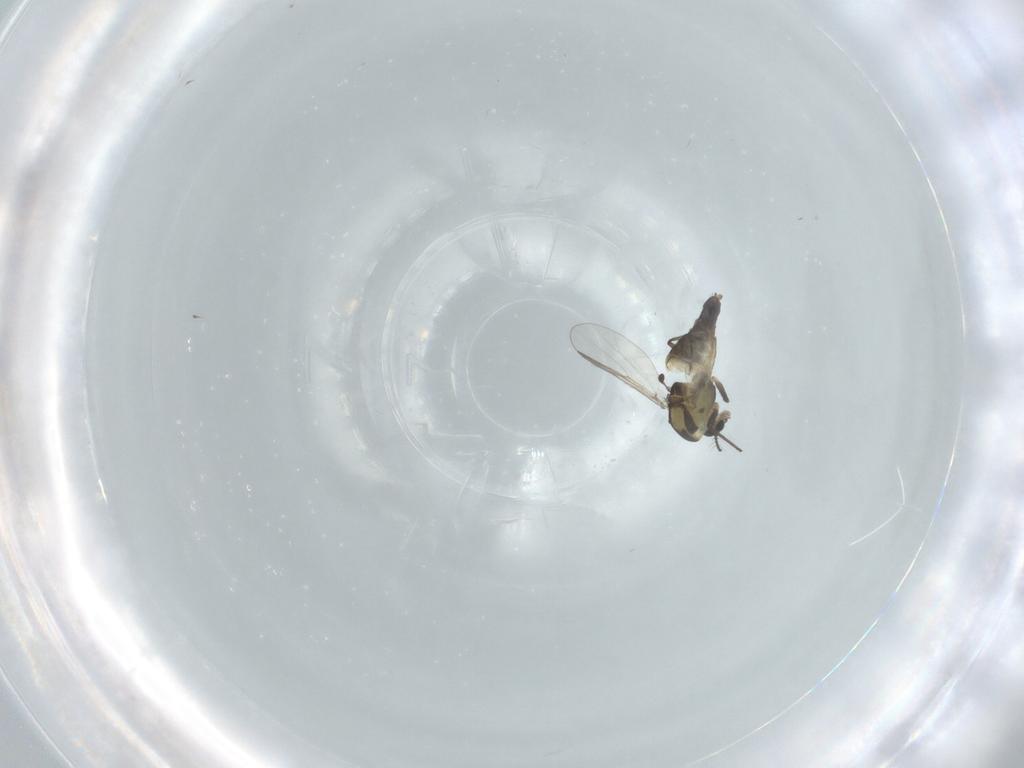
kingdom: Animalia
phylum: Arthropoda
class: Insecta
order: Diptera
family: Chironomidae
